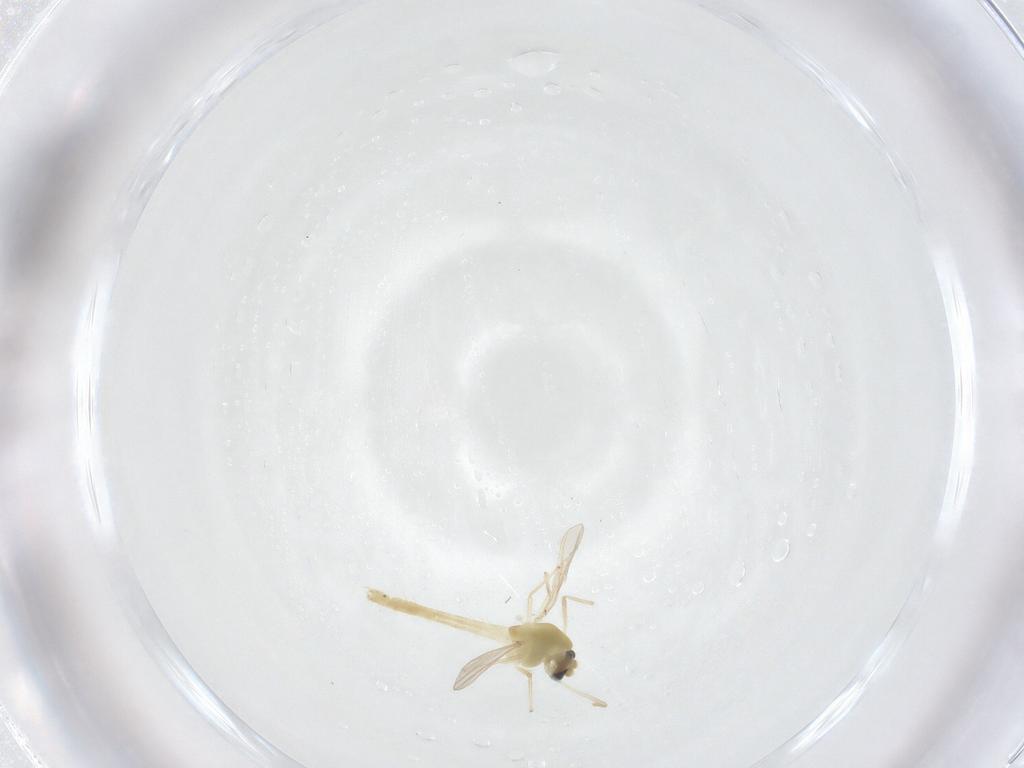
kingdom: Animalia
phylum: Arthropoda
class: Insecta
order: Diptera
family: Chironomidae
